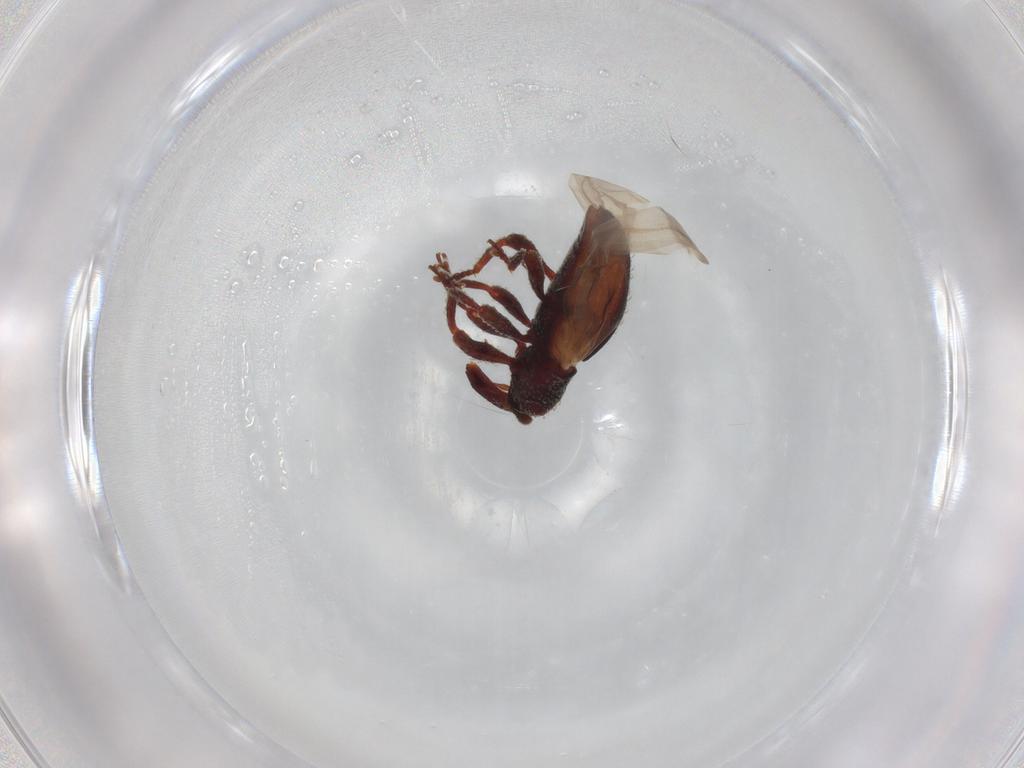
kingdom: Animalia
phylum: Arthropoda
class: Insecta
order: Coleoptera
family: Curculionidae
